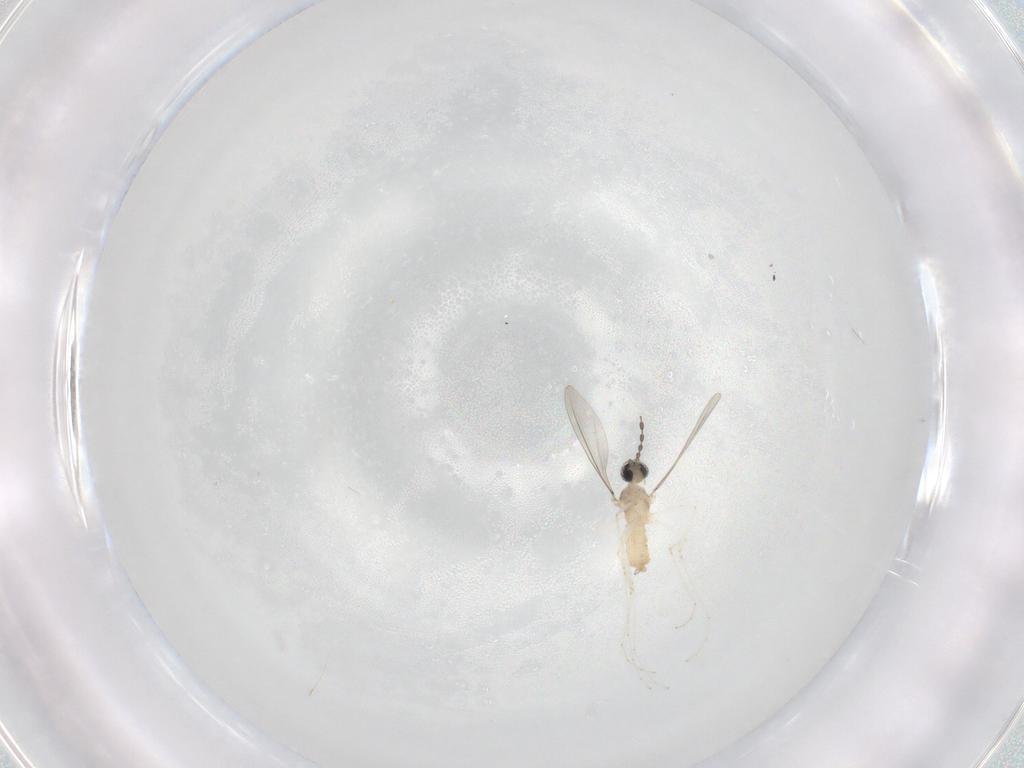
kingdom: Animalia
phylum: Arthropoda
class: Insecta
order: Diptera
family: Cecidomyiidae
